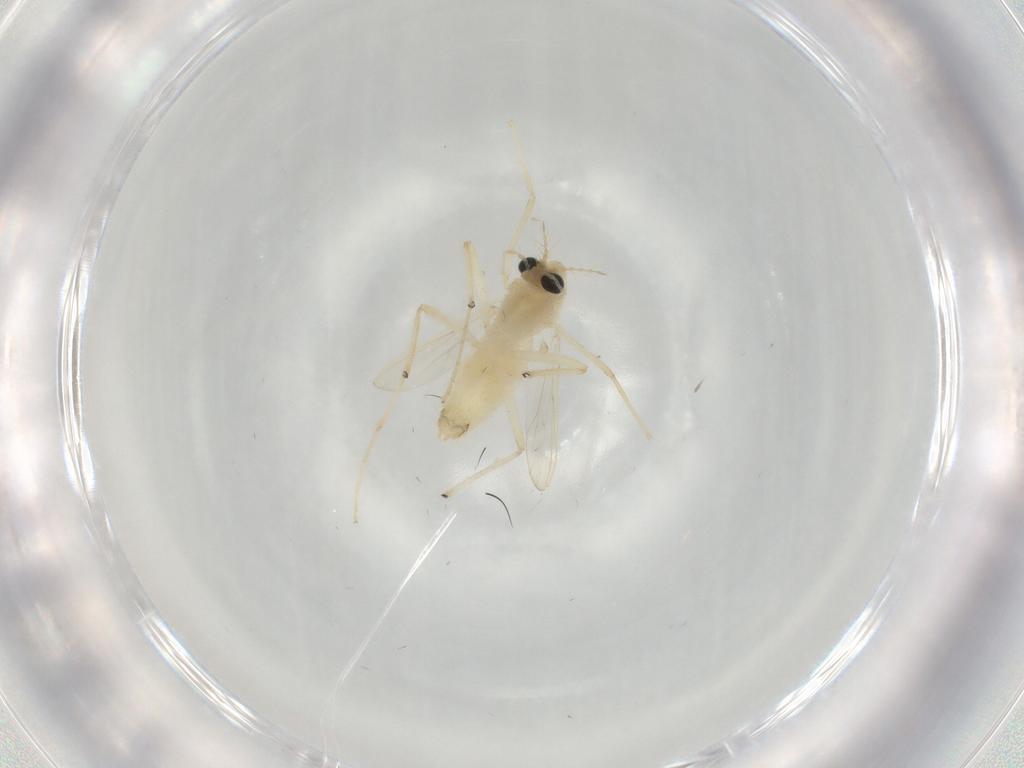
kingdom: Animalia
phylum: Arthropoda
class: Insecta
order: Diptera
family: Chironomidae
